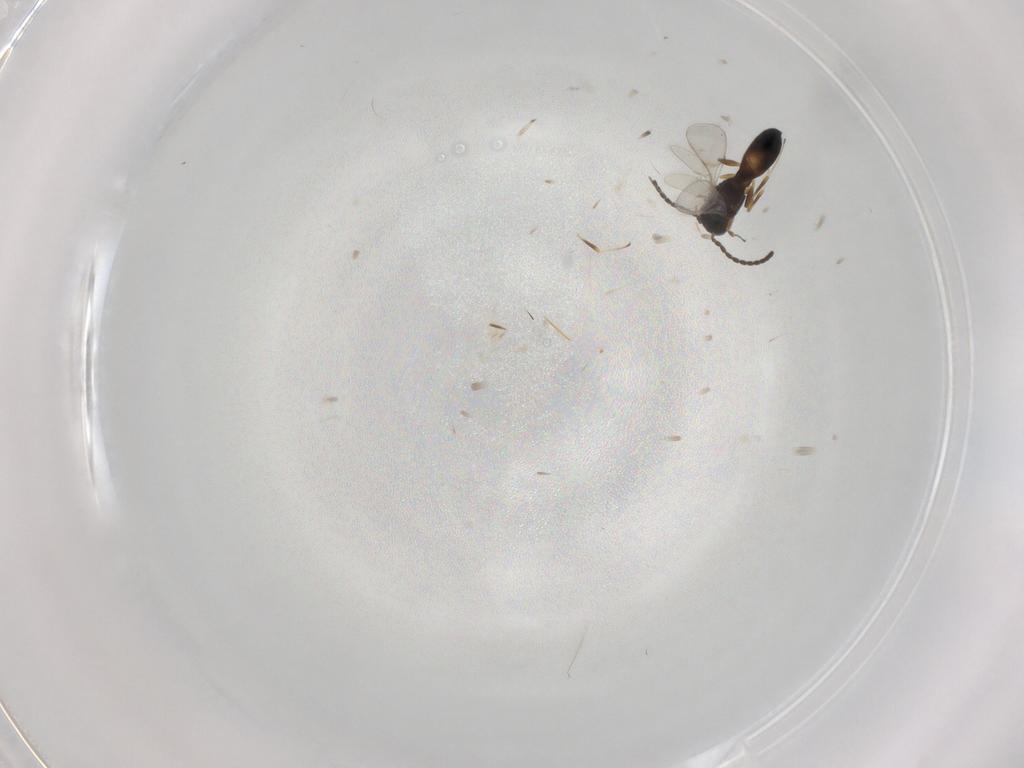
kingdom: Animalia
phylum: Arthropoda
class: Insecta
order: Hymenoptera
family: Scelionidae
